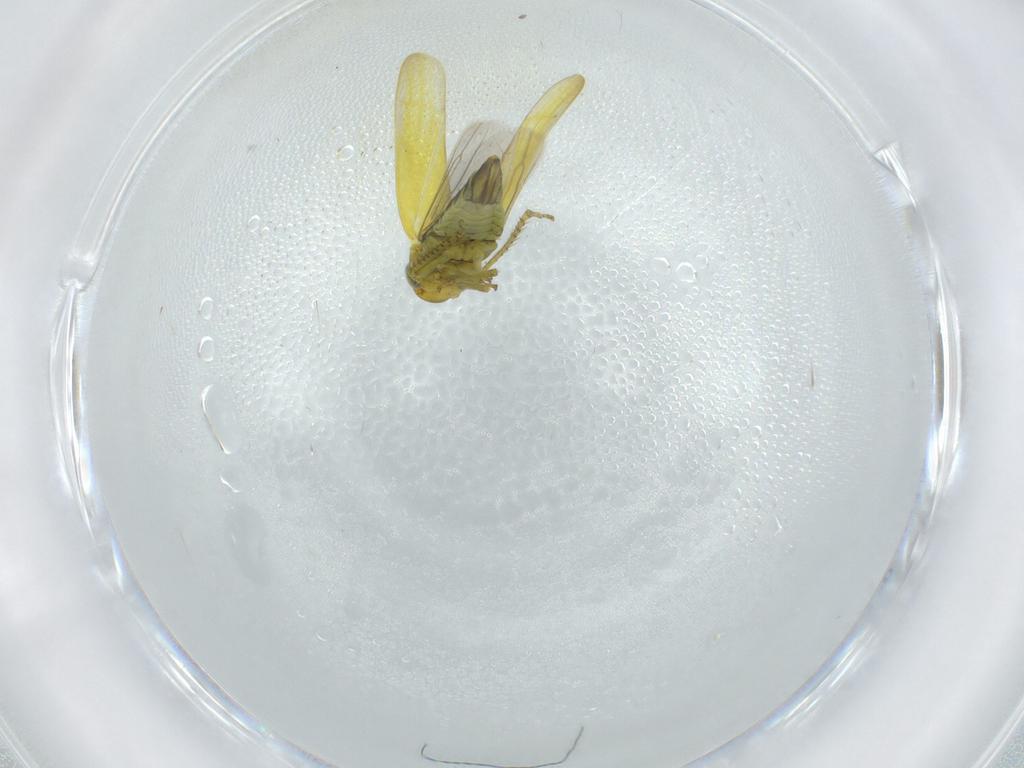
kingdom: Animalia
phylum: Arthropoda
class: Insecta
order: Hemiptera
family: Cicadellidae
